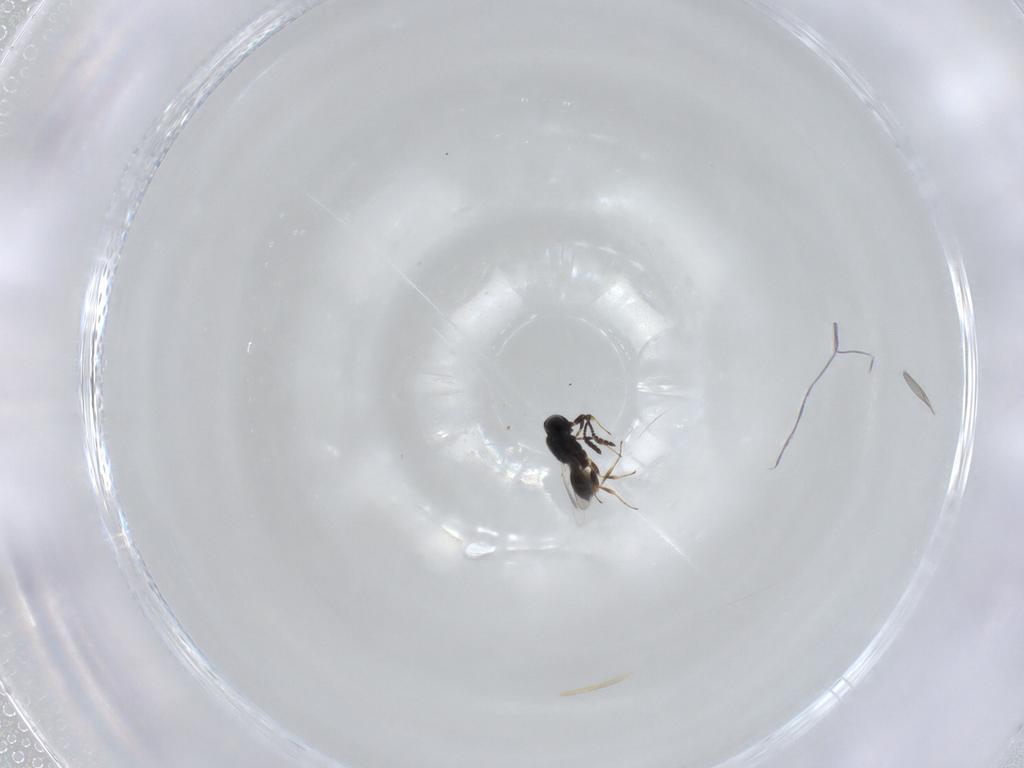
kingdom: Animalia
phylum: Arthropoda
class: Insecta
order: Hymenoptera
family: Scelionidae
